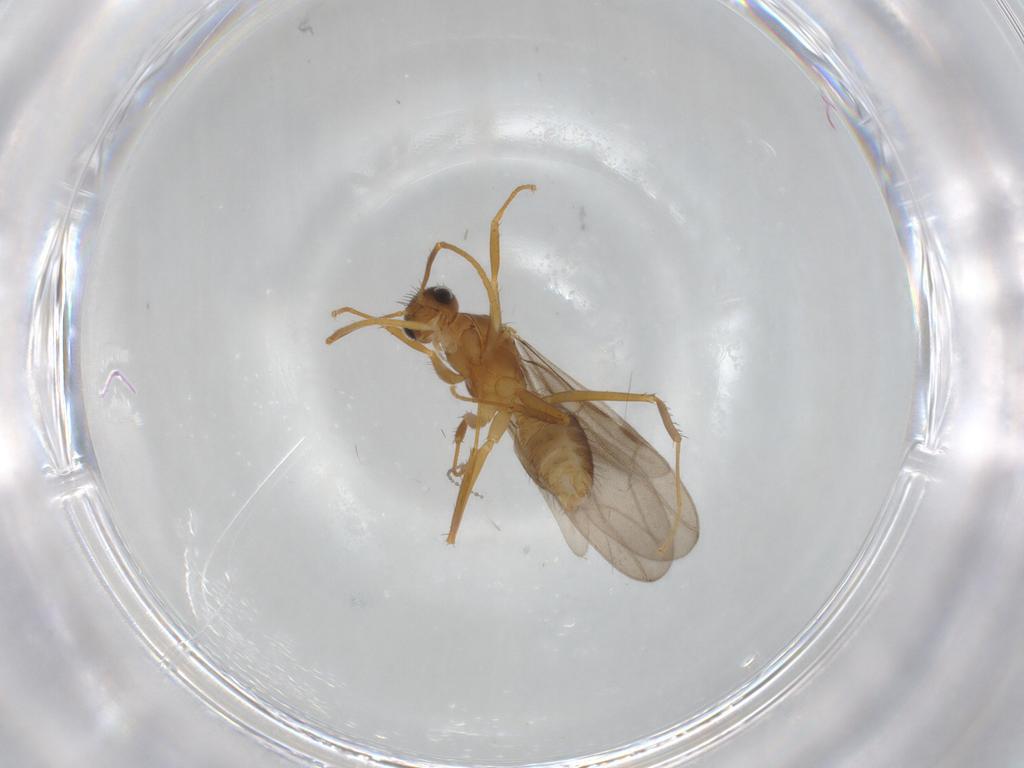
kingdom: Animalia
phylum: Arthropoda
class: Insecta
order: Hymenoptera
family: Formicidae
